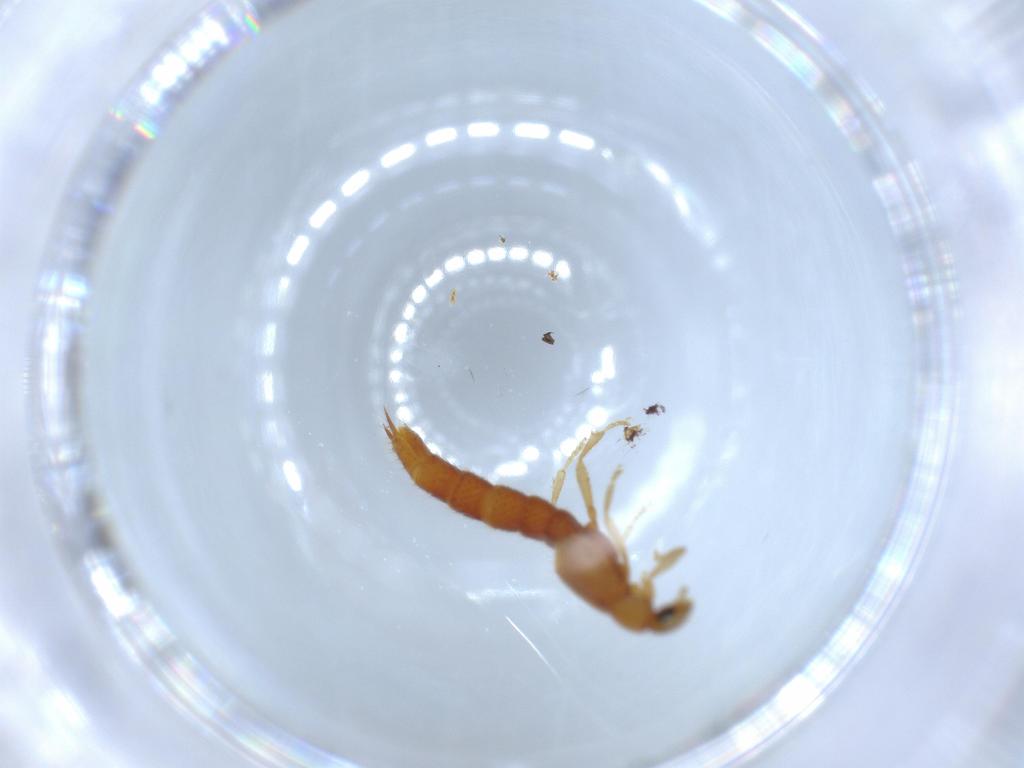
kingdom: Animalia
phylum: Arthropoda
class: Insecta
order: Coleoptera
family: Staphylinidae
